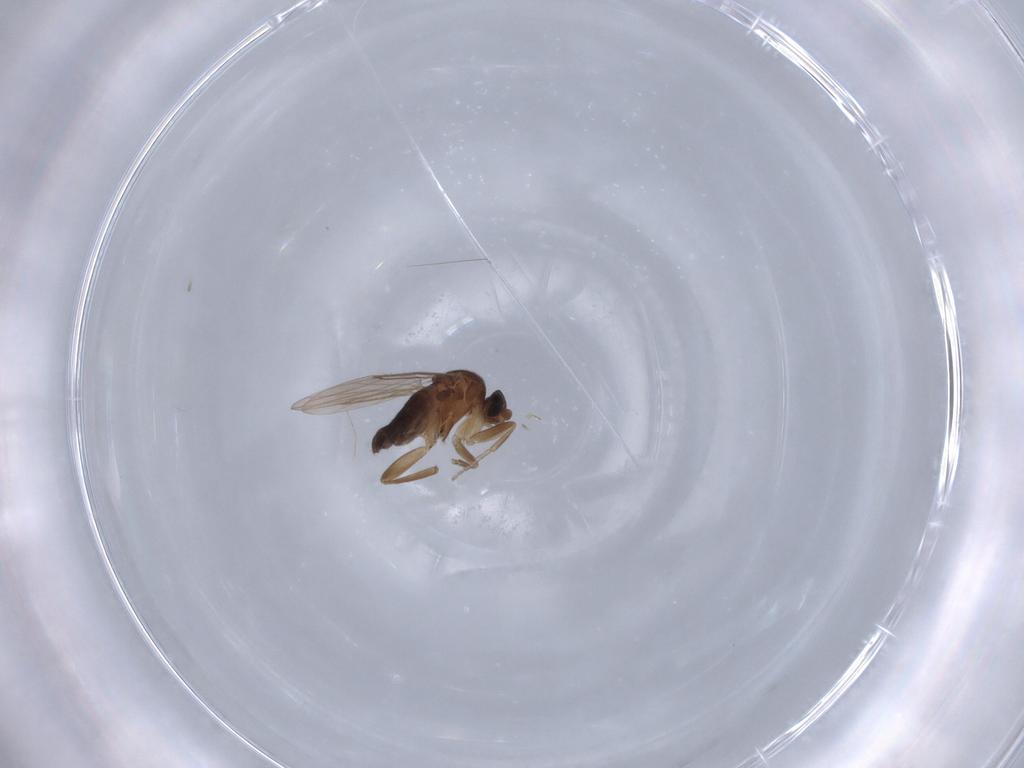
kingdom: Animalia
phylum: Arthropoda
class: Insecta
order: Diptera
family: Phoridae
